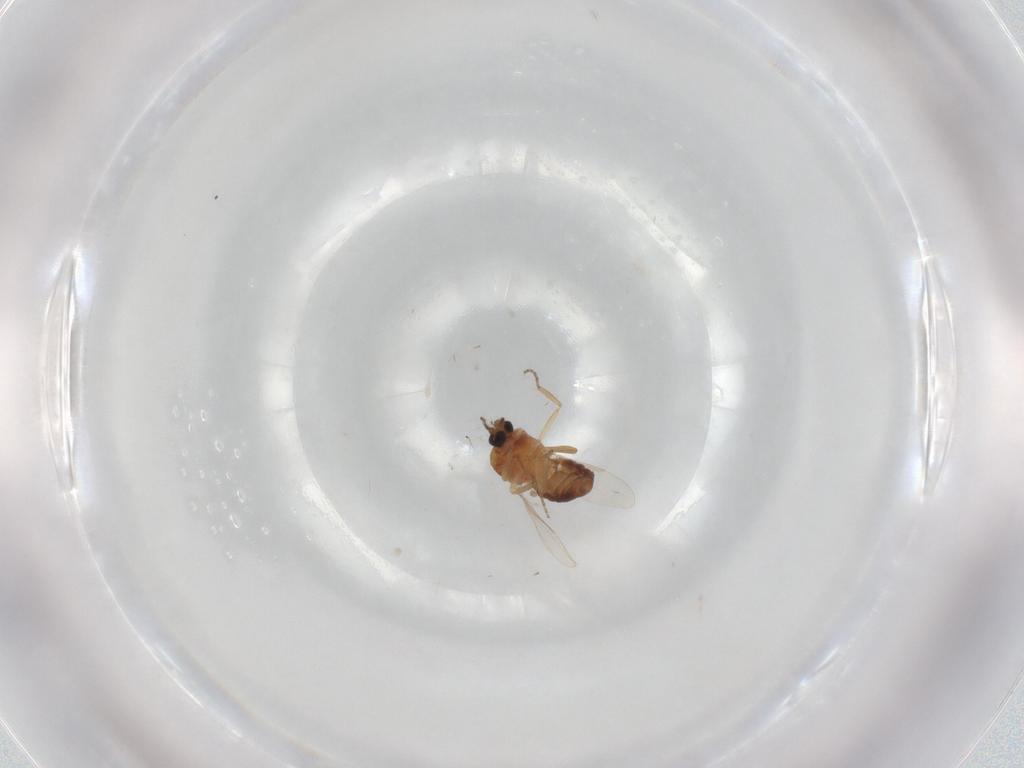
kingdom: Animalia
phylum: Arthropoda
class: Insecta
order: Diptera
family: Ceratopogonidae
